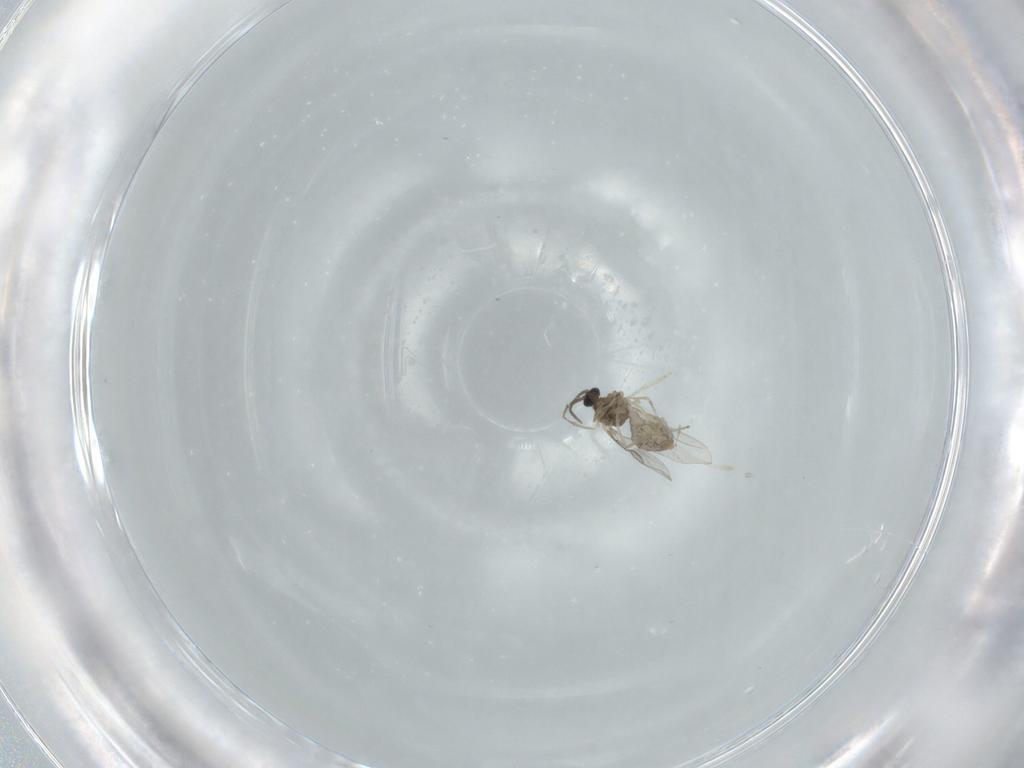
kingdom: Animalia
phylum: Arthropoda
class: Insecta
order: Diptera
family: Cecidomyiidae
